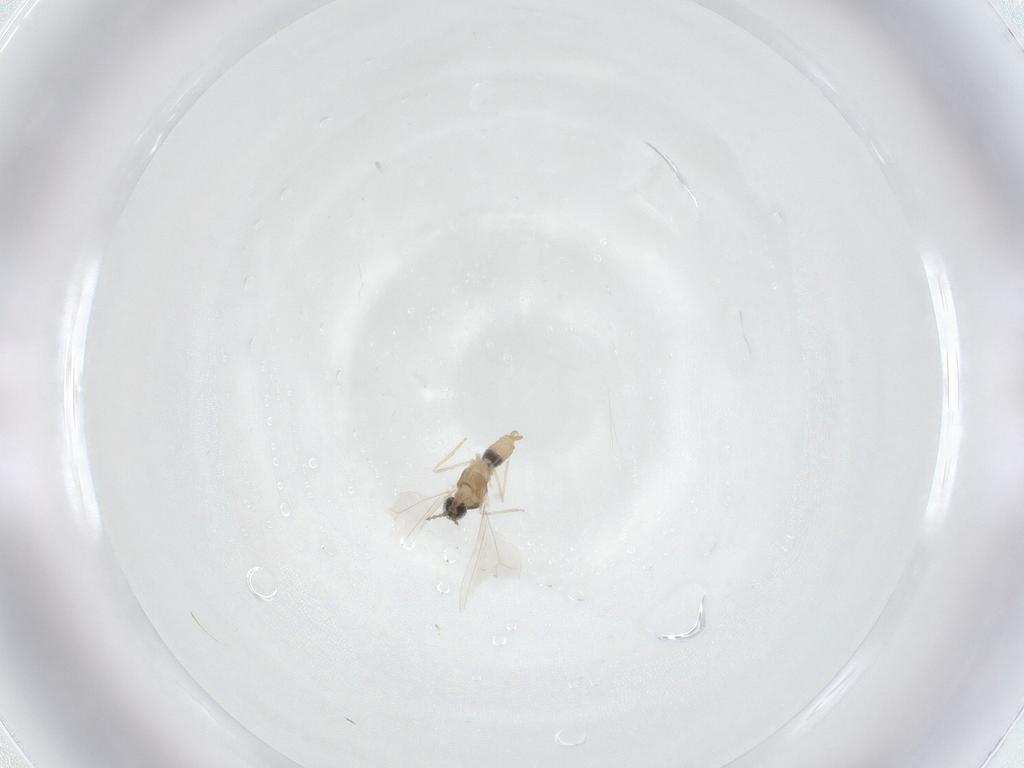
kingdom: Animalia
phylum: Arthropoda
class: Insecta
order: Diptera
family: Cecidomyiidae
